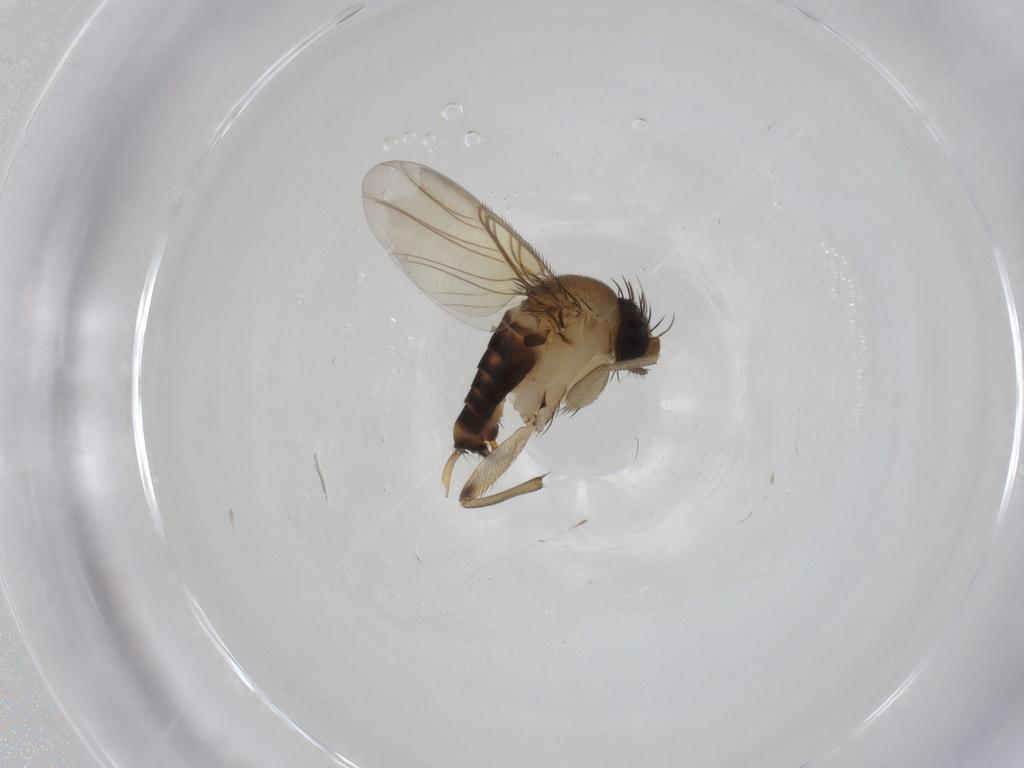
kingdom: Animalia
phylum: Arthropoda
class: Insecta
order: Diptera
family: Phoridae
